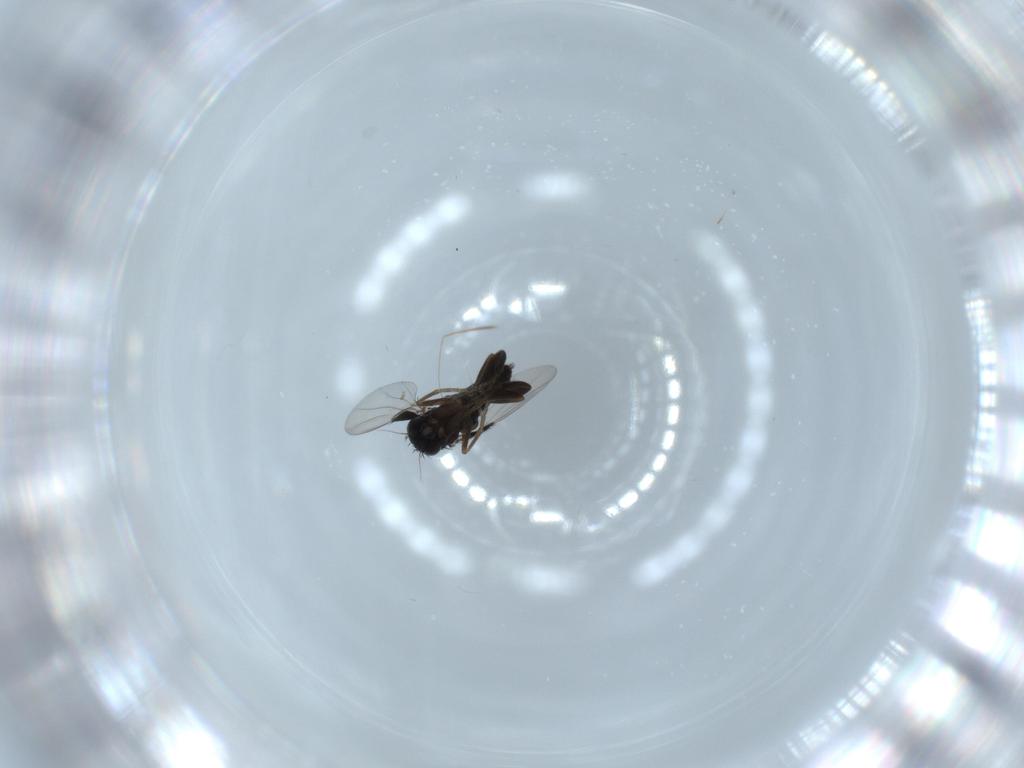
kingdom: Animalia
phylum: Arthropoda
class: Insecta
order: Diptera
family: Phoridae
